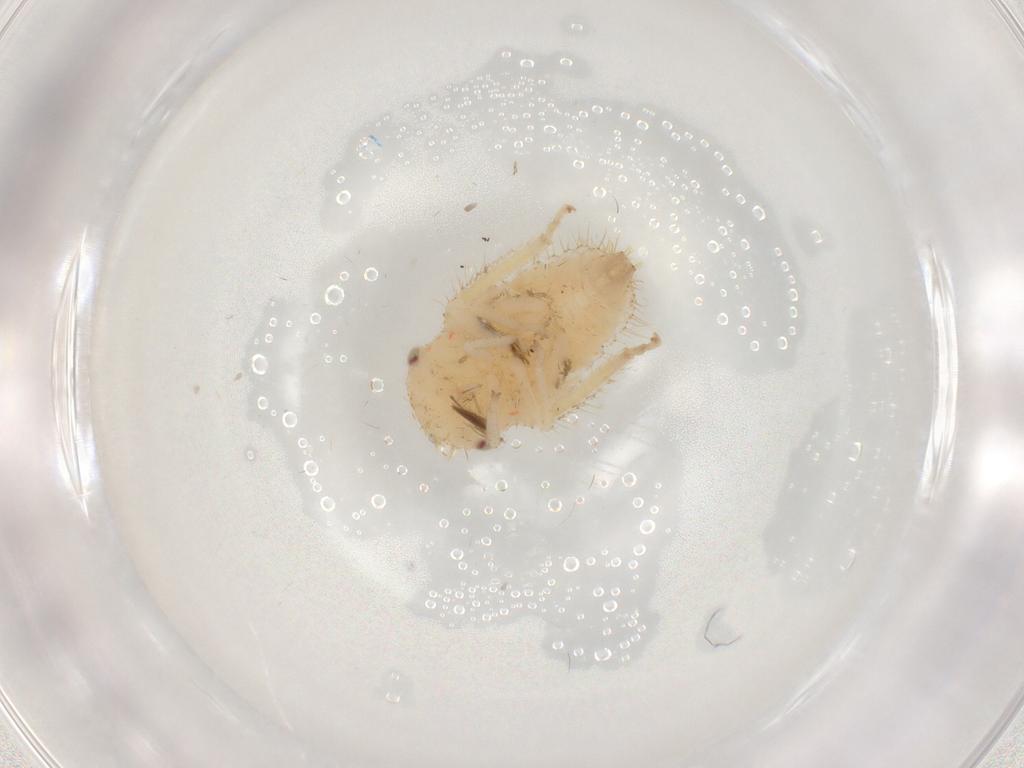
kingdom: Animalia
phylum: Arthropoda
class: Insecta
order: Hemiptera
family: Cicadellidae
